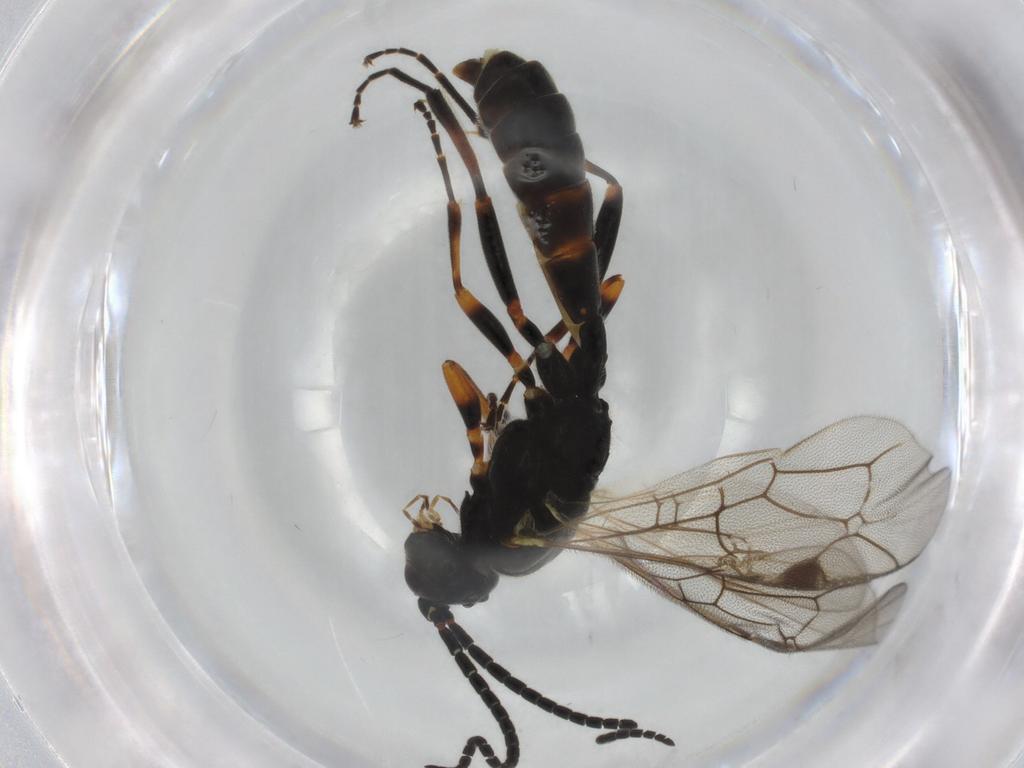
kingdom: Animalia
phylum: Arthropoda
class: Insecta
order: Hymenoptera
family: Ichneumonidae
